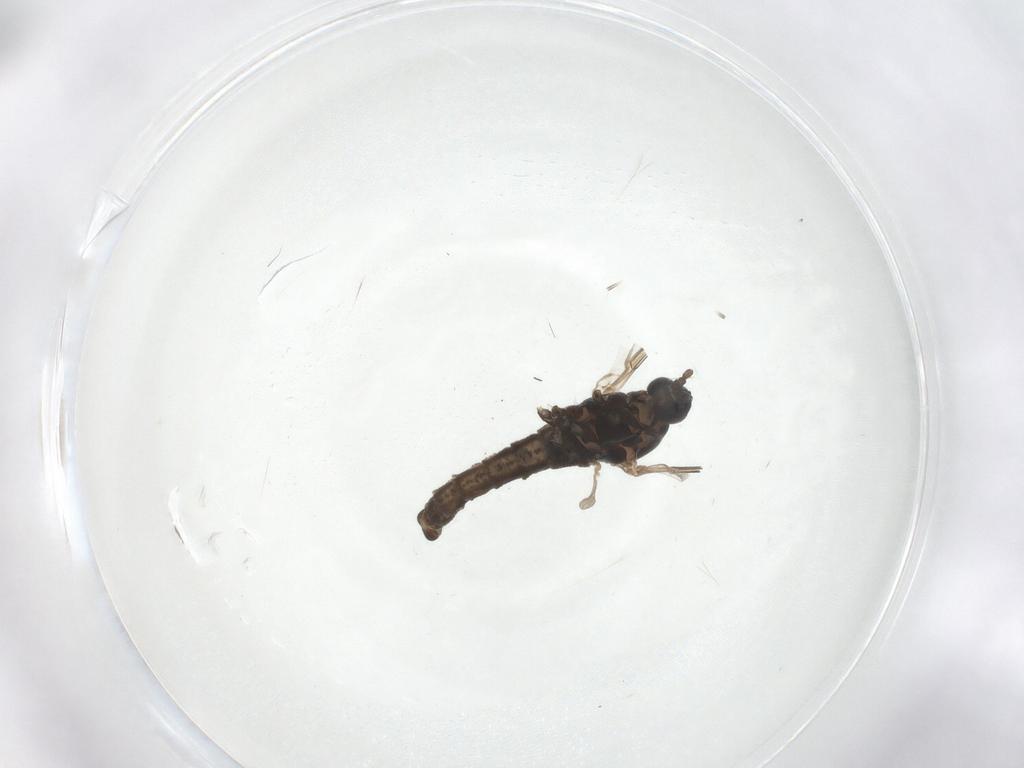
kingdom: Animalia
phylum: Arthropoda
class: Insecta
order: Diptera
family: Cecidomyiidae
